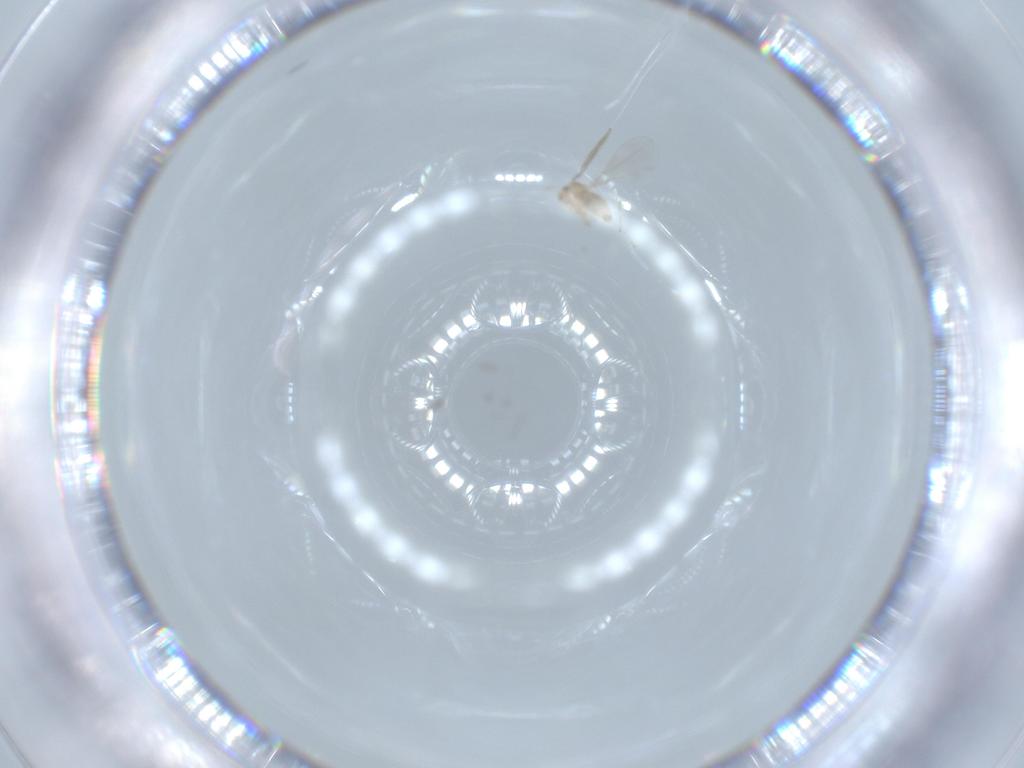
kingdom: Animalia
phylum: Arthropoda
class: Insecta
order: Diptera
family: Cecidomyiidae
